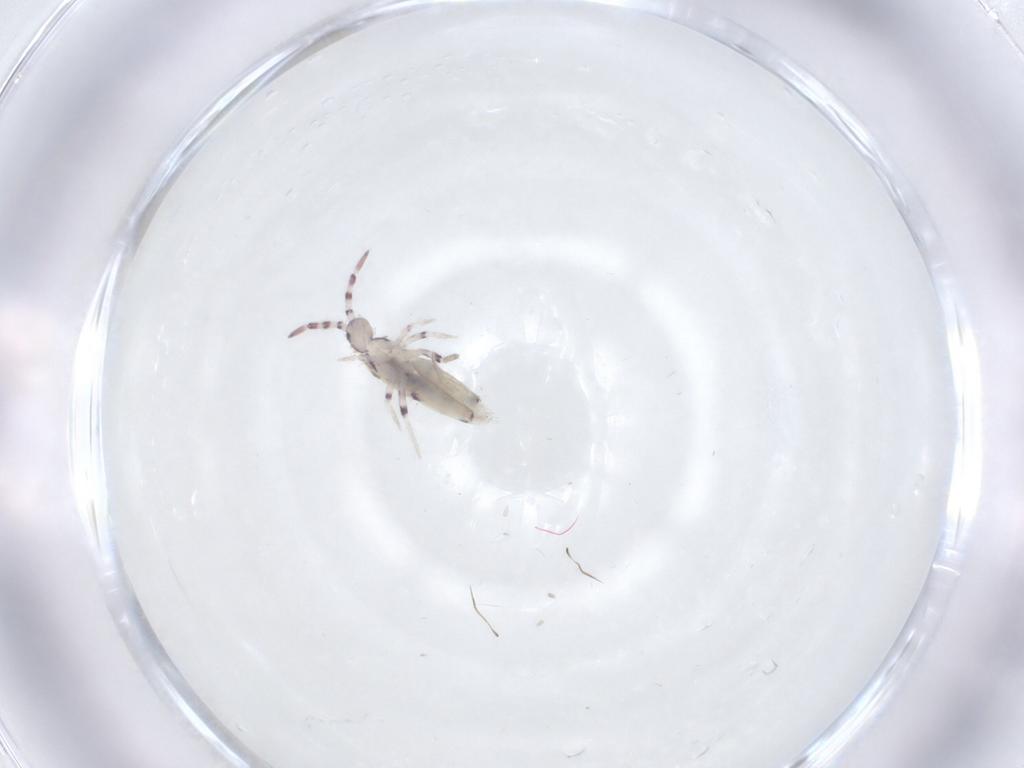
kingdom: Animalia
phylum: Arthropoda
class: Collembola
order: Entomobryomorpha
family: Entomobryidae
